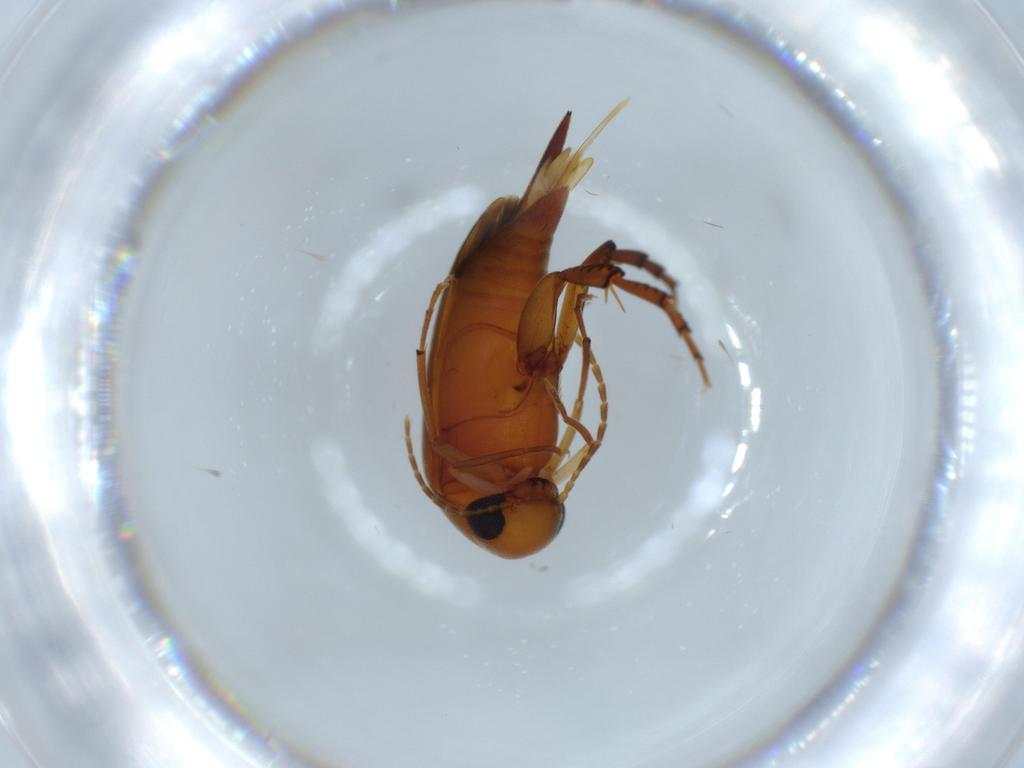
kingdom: Animalia
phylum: Arthropoda
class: Insecta
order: Coleoptera
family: Mordellidae
